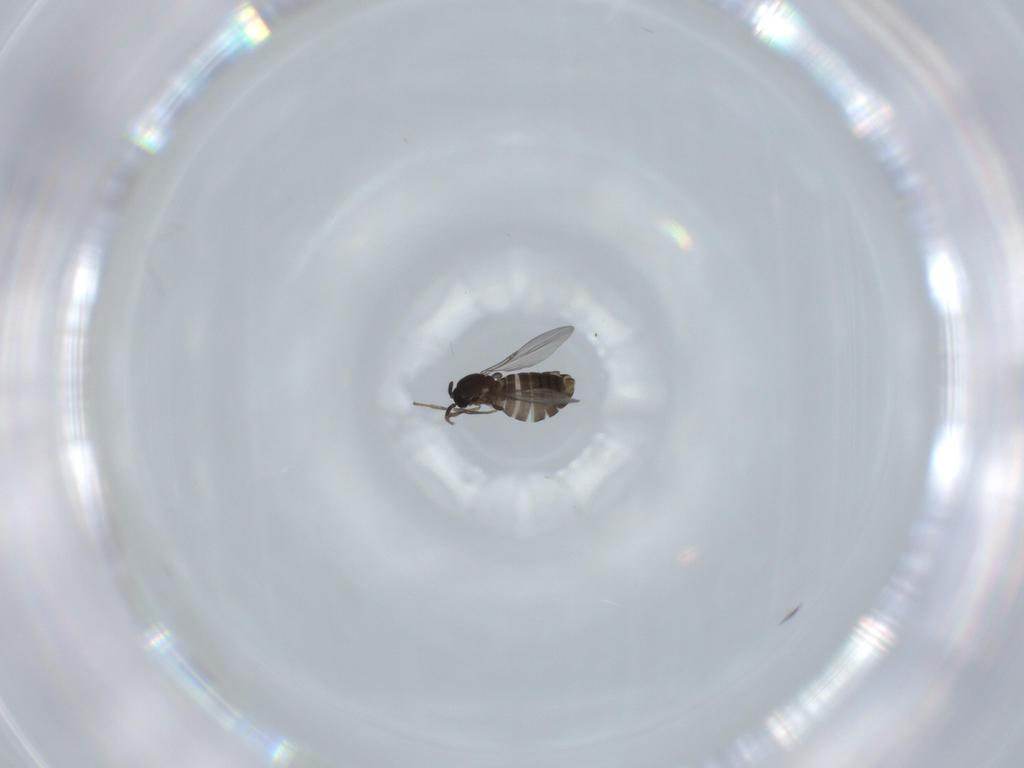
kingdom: Animalia
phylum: Arthropoda
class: Insecta
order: Diptera
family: Scatopsidae
